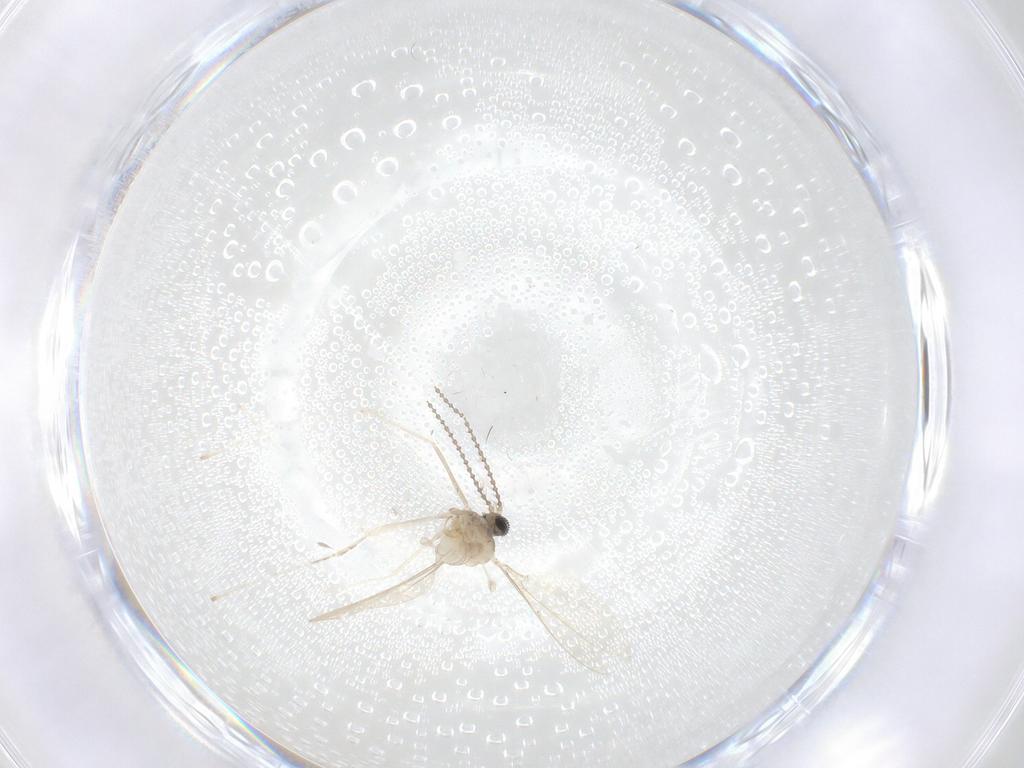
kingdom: Animalia
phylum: Arthropoda
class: Insecta
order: Diptera
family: Cecidomyiidae
